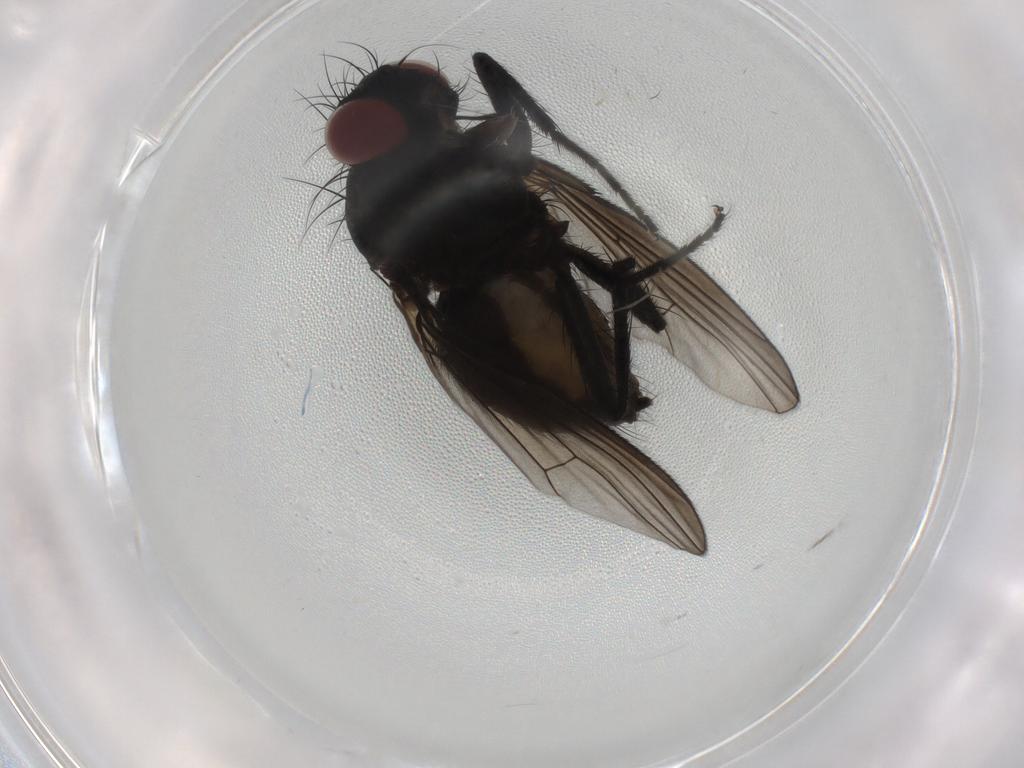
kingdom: Animalia
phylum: Arthropoda
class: Insecta
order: Diptera
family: Muscidae
